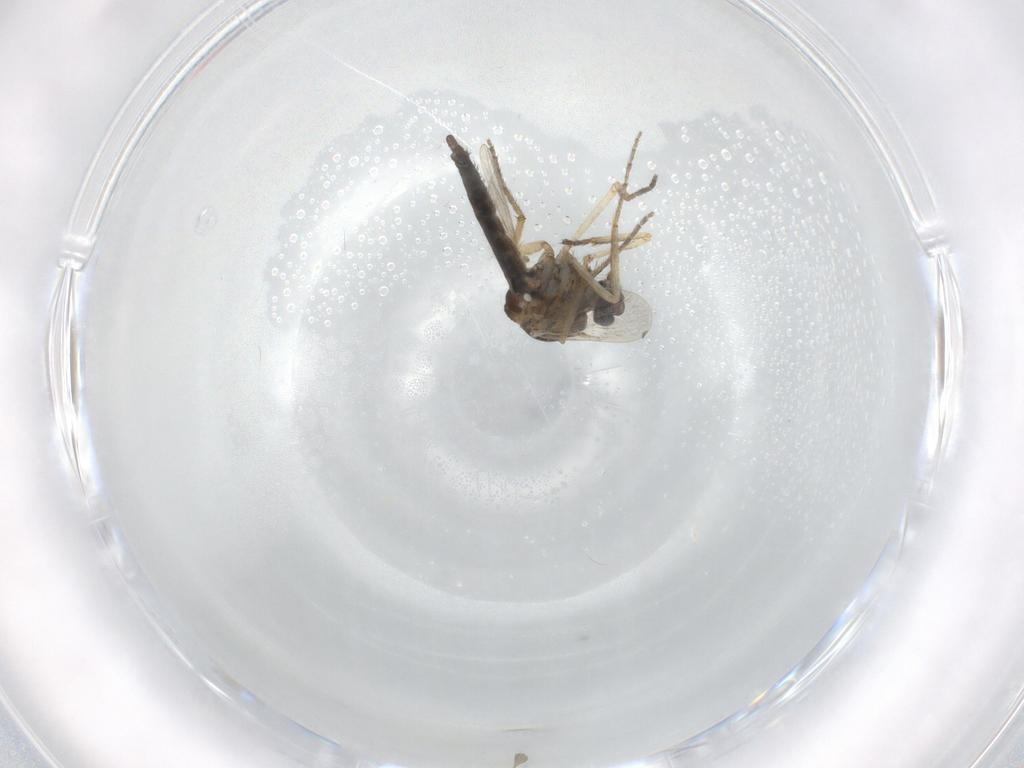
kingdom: Animalia
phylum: Arthropoda
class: Insecta
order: Diptera
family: Ceratopogonidae
